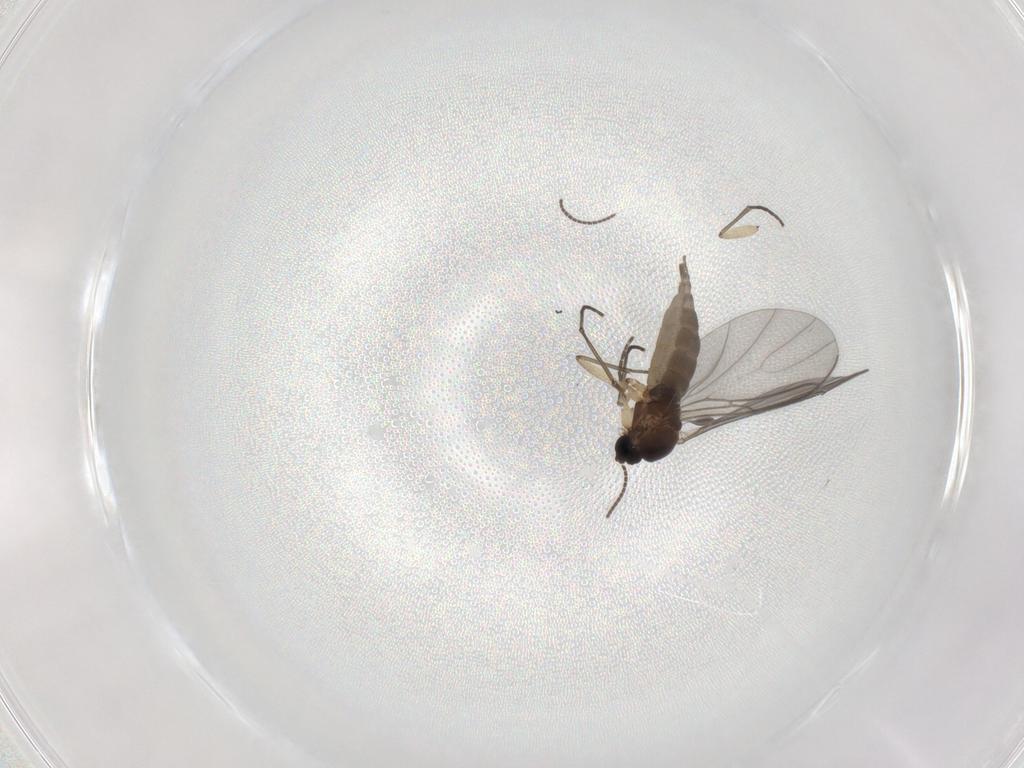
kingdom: Animalia
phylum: Arthropoda
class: Insecta
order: Diptera
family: Sciaridae
